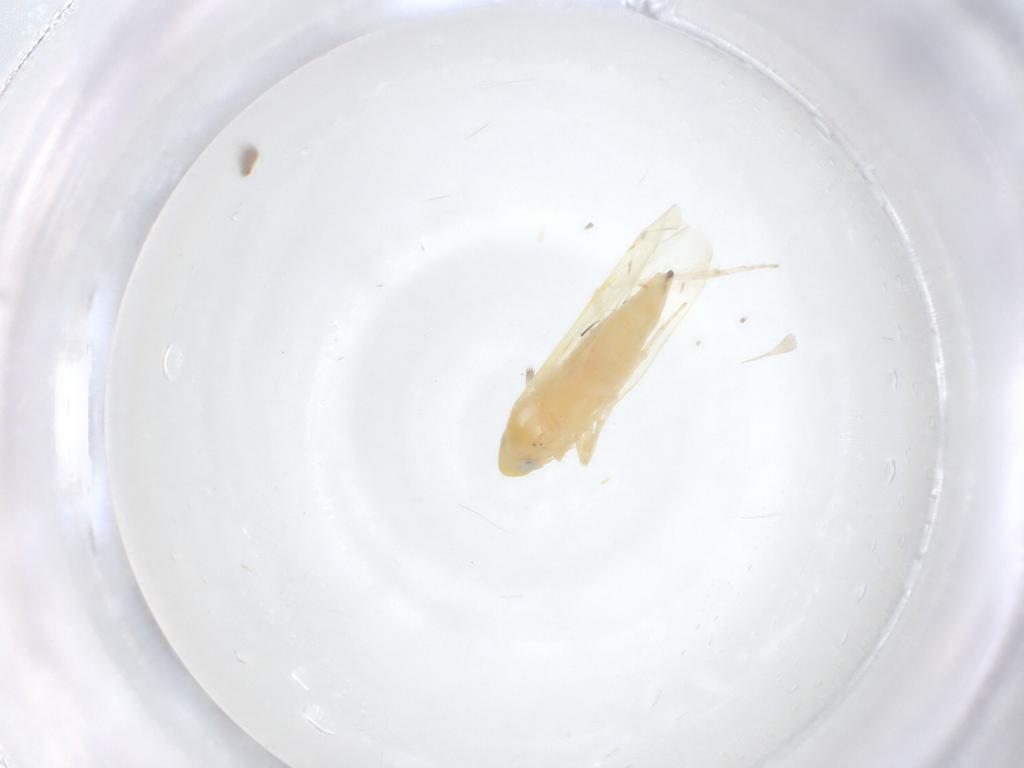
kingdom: Animalia
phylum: Arthropoda
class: Insecta
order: Hemiptera
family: Cicadellidae
